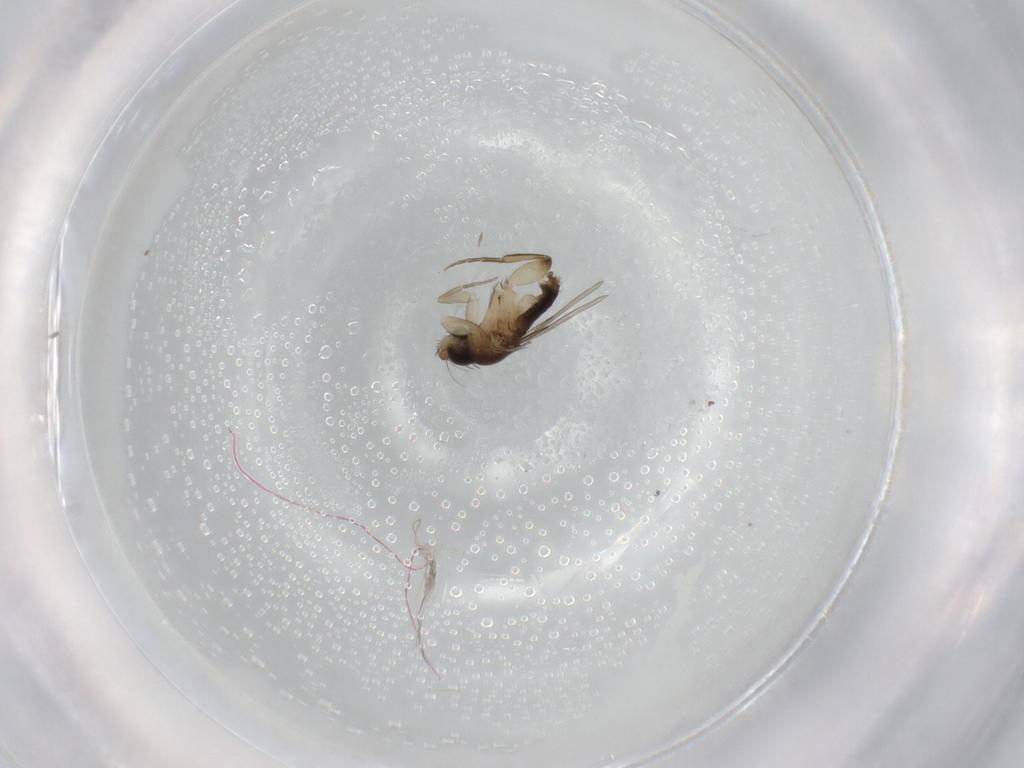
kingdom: Animalia
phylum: Arthropoda
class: Insecta
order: Diptera
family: Phoridae
